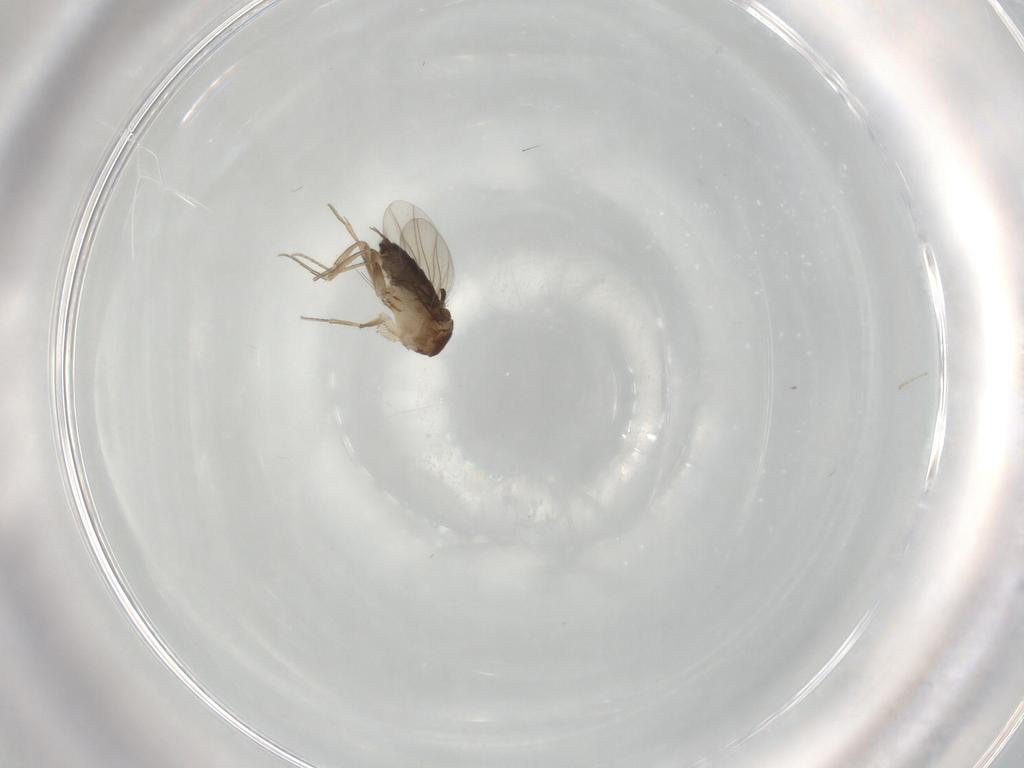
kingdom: Animalia
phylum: Arthropoda
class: Insecta
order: Diptera
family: Phoridae
